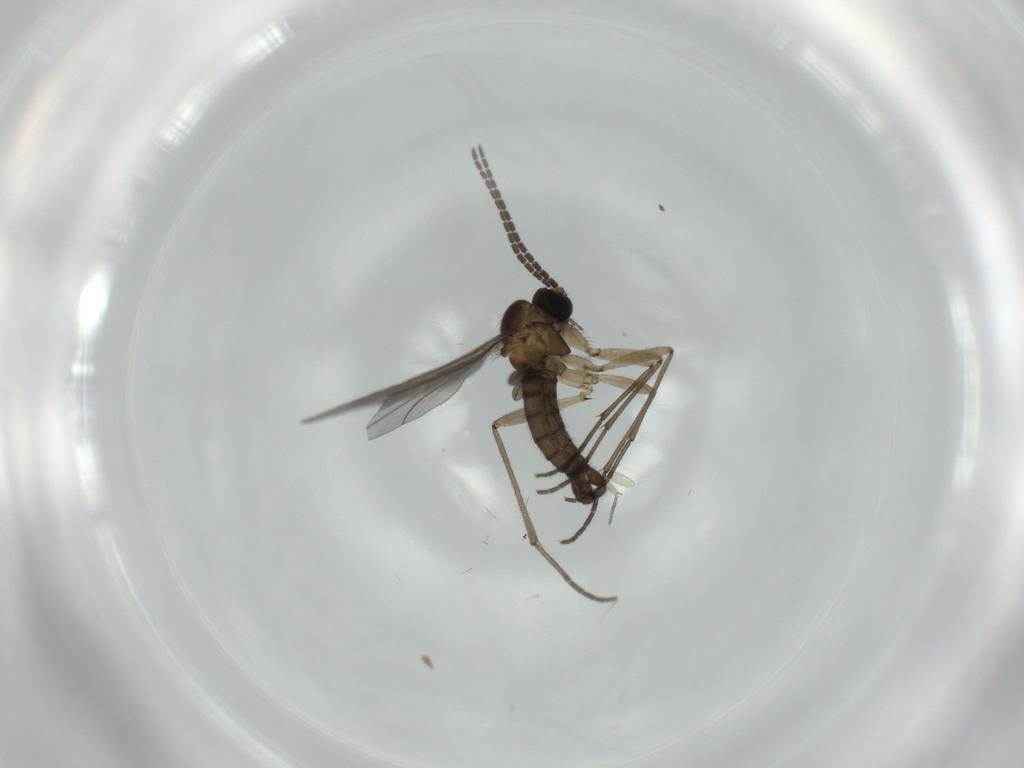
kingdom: Animalia
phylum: Arthropoda
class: Insecta
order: Diptera
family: Sciaridae
